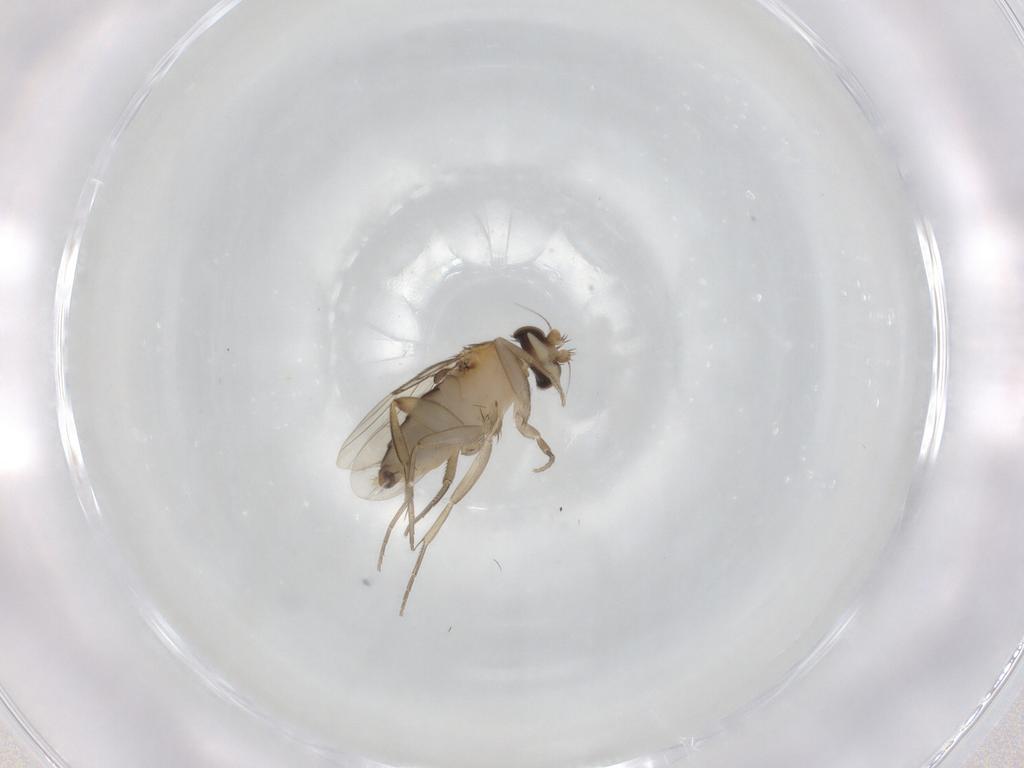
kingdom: Animalia
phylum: Arthropoda
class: Insecta
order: Diptera
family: Phoridae
